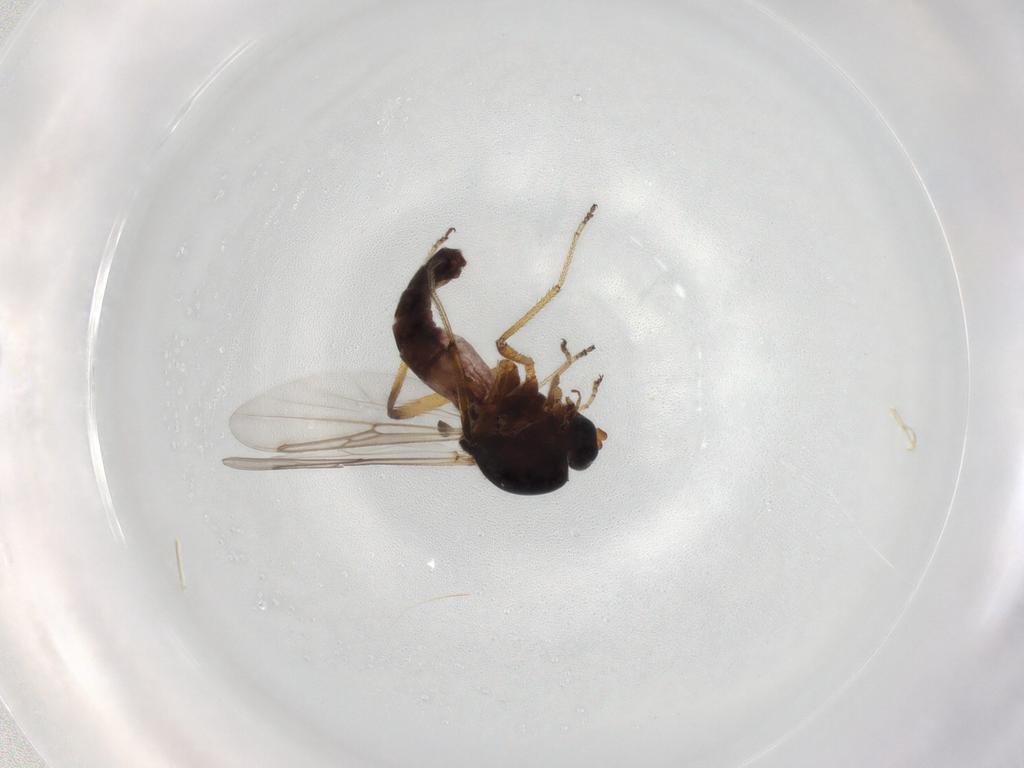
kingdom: Animalia
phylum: Arthropoda
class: Insecta
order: Diptera
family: Ceratopogonidae
